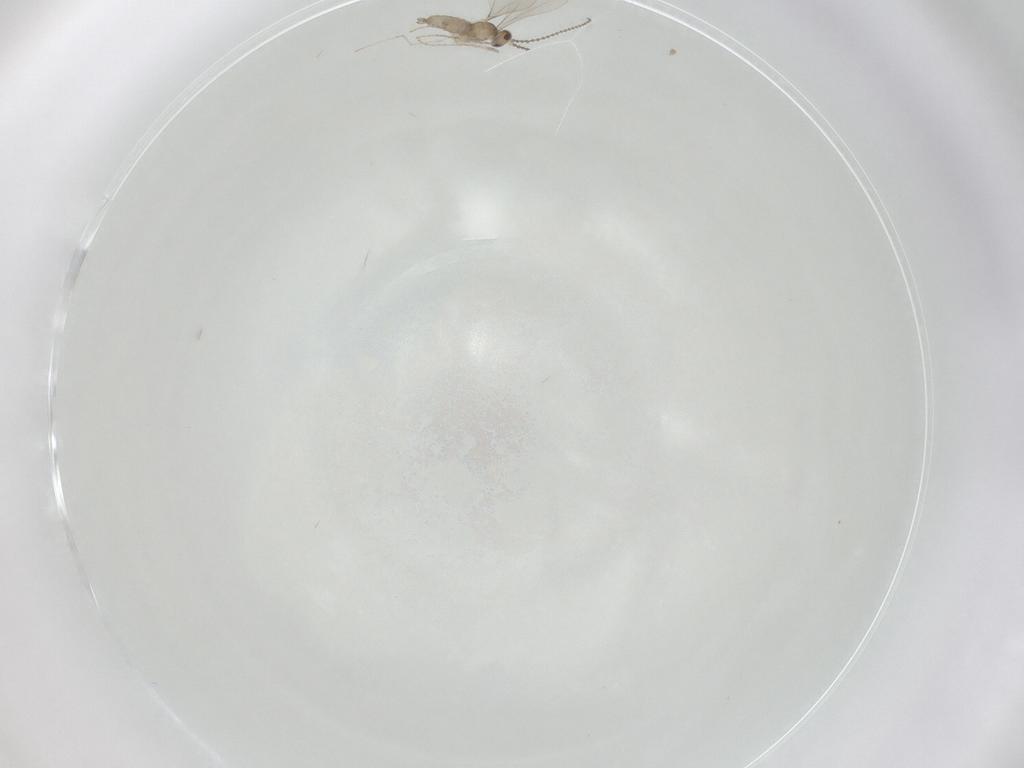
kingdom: Animalia
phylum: Arthropoda
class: Insecta
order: Diptera
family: Cecidomyiidae
